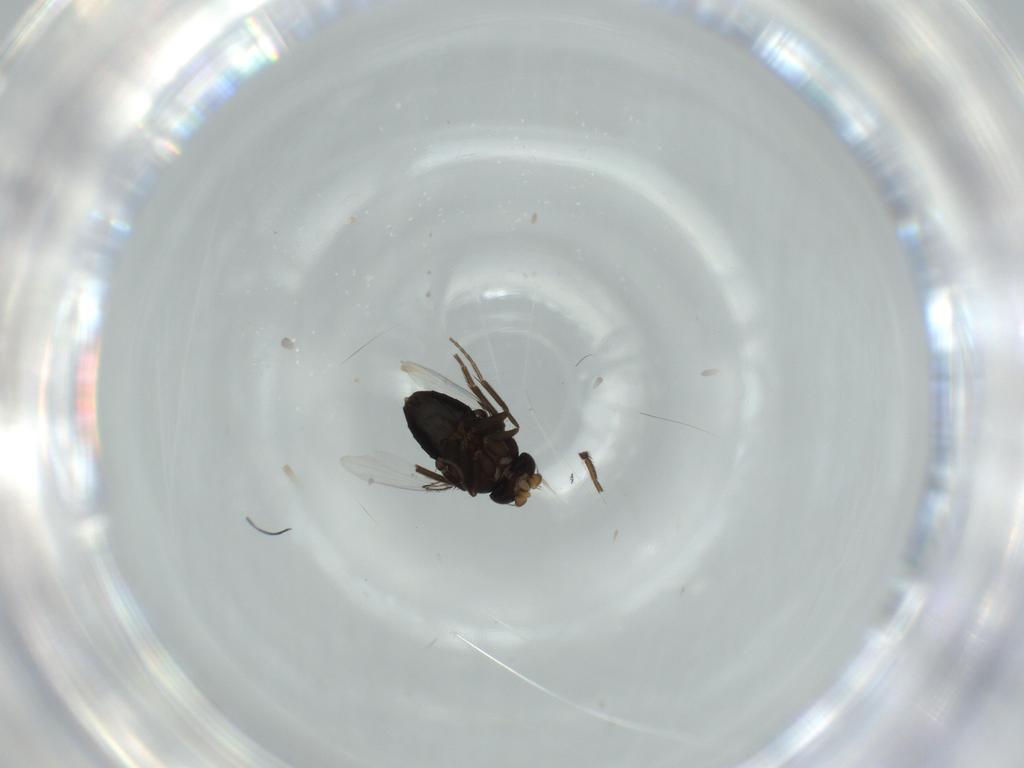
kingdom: Animalia
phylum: Arthropoda
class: Insecta
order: Diptera
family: Phoridae
